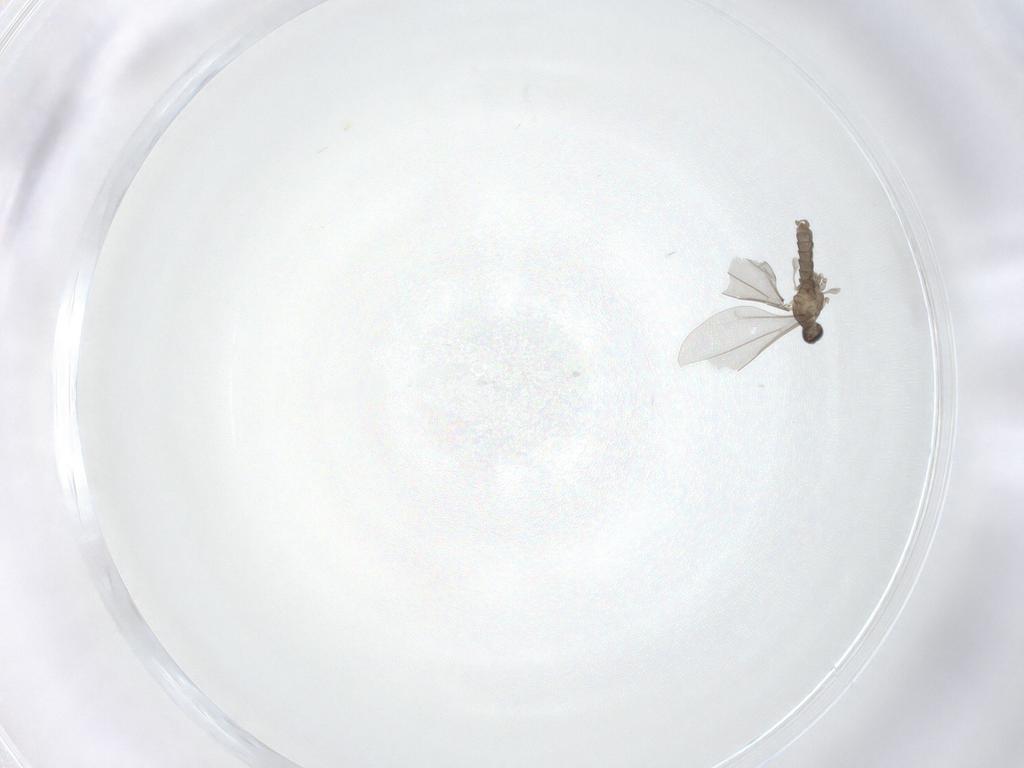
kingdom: Animalia
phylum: Arthropoda
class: Insecta
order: Diptera
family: Cecidomyiidae
